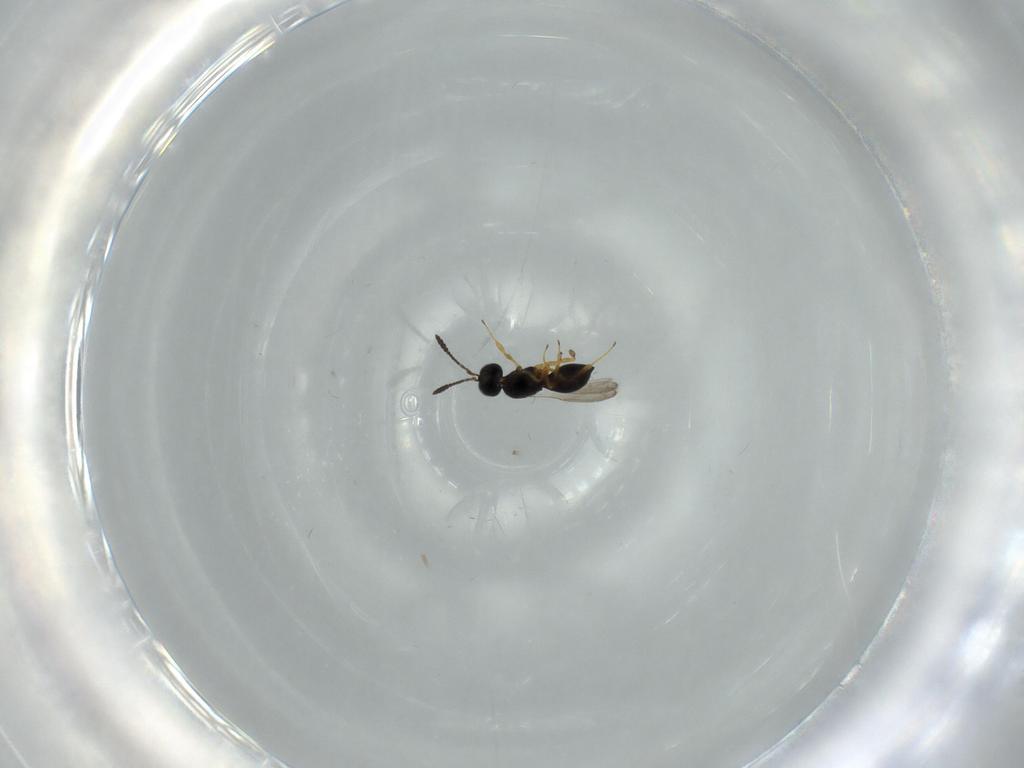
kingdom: Animalia
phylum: Arthropoda
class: Insecta
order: Hymenoptera
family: Scelionidae
